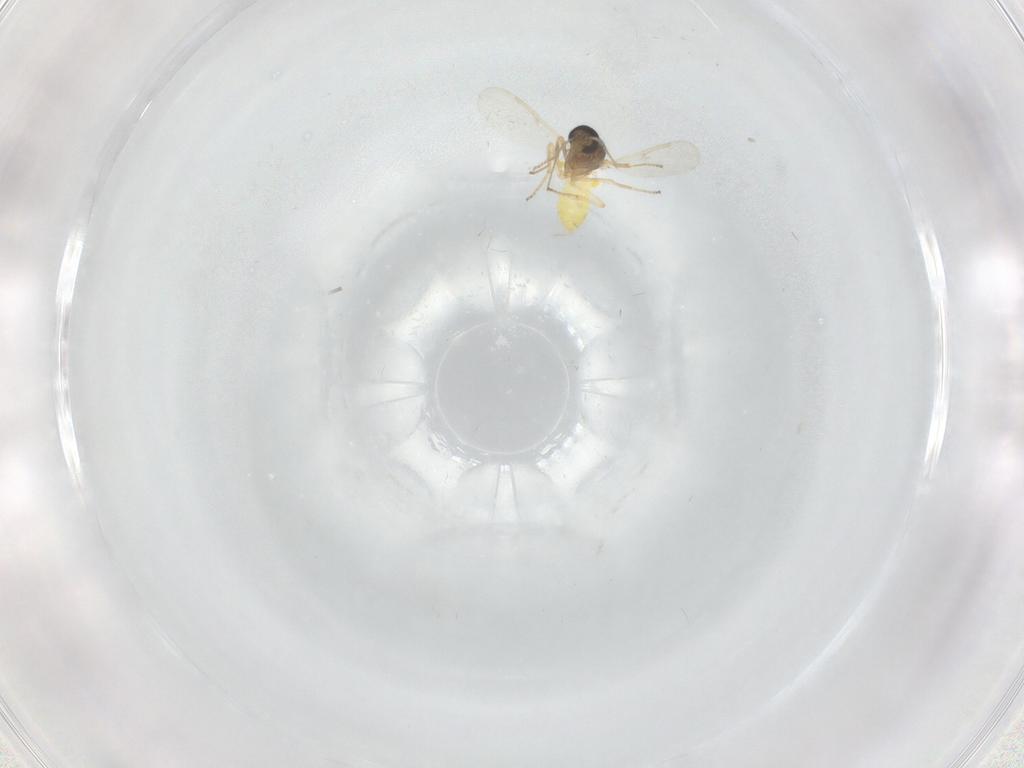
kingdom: Animalia
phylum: Arthropoda
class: Insecta
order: Diptera
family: Ceratopogonidae
